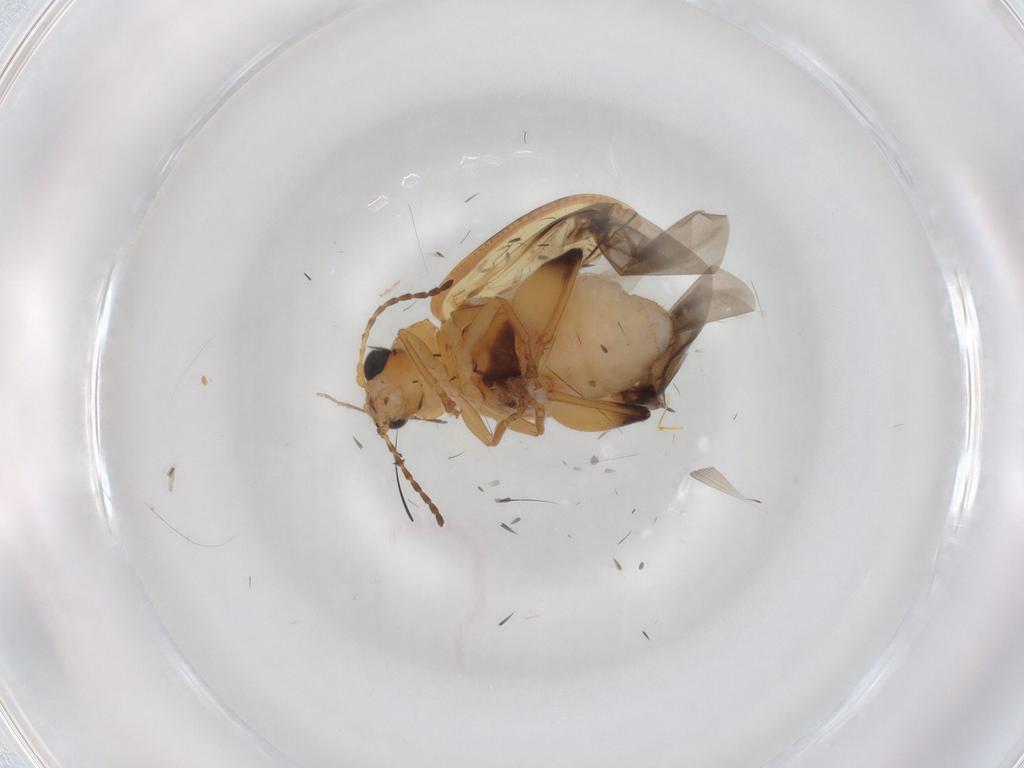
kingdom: Animalia
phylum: Arthropoda
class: Insecta
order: Coleoptera
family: Chrysomelidae
